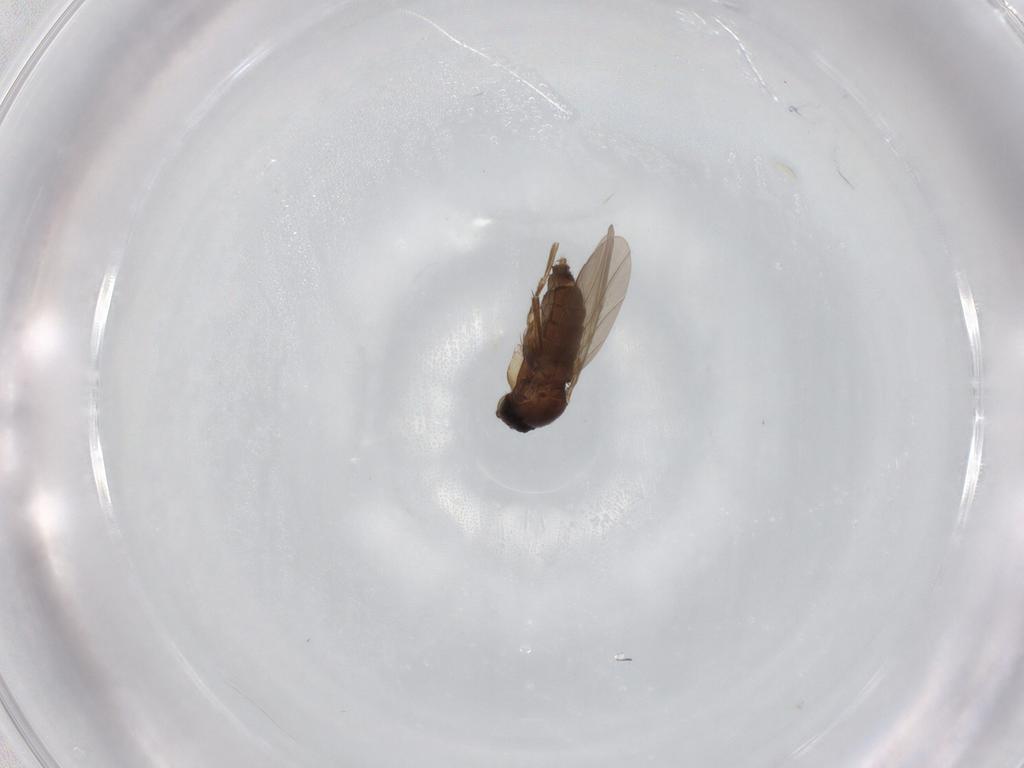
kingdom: Animalia
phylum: Arthropoda
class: Insecta
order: Diptera
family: Phoridae
